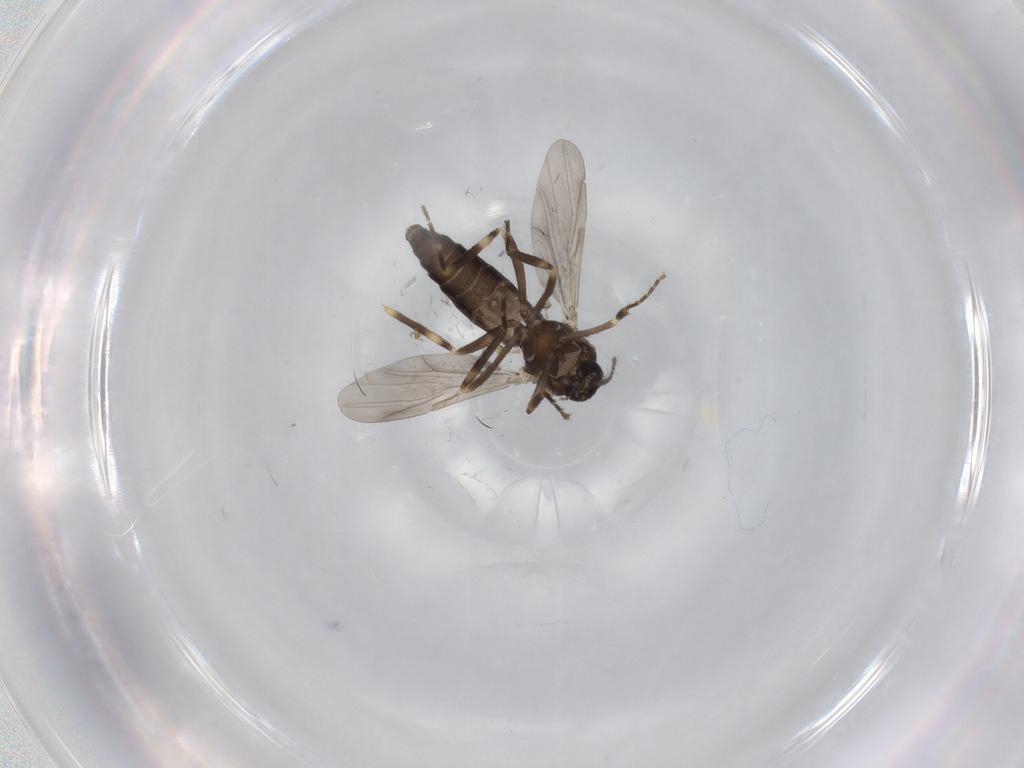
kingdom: Animalia
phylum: Arthropoda
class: Insecta
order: Diptera
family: Ceratopogonidae
